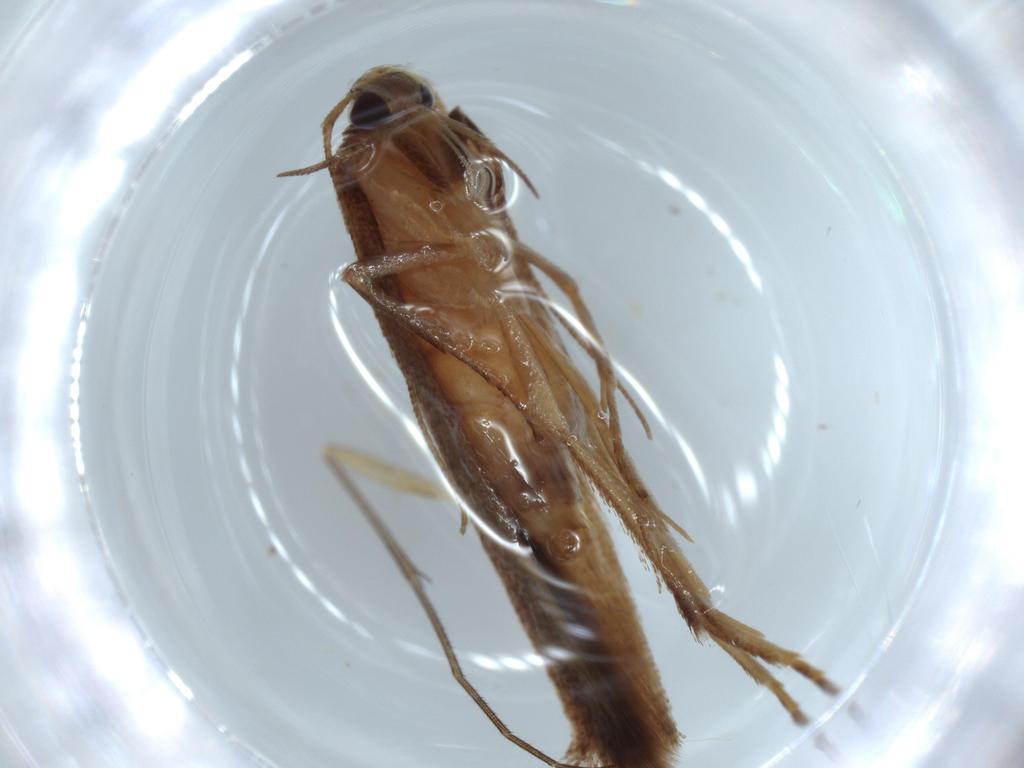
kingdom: Animalia
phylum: Arthropoda
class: Insecta
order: Lepidoptera
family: Stathmopodidae
